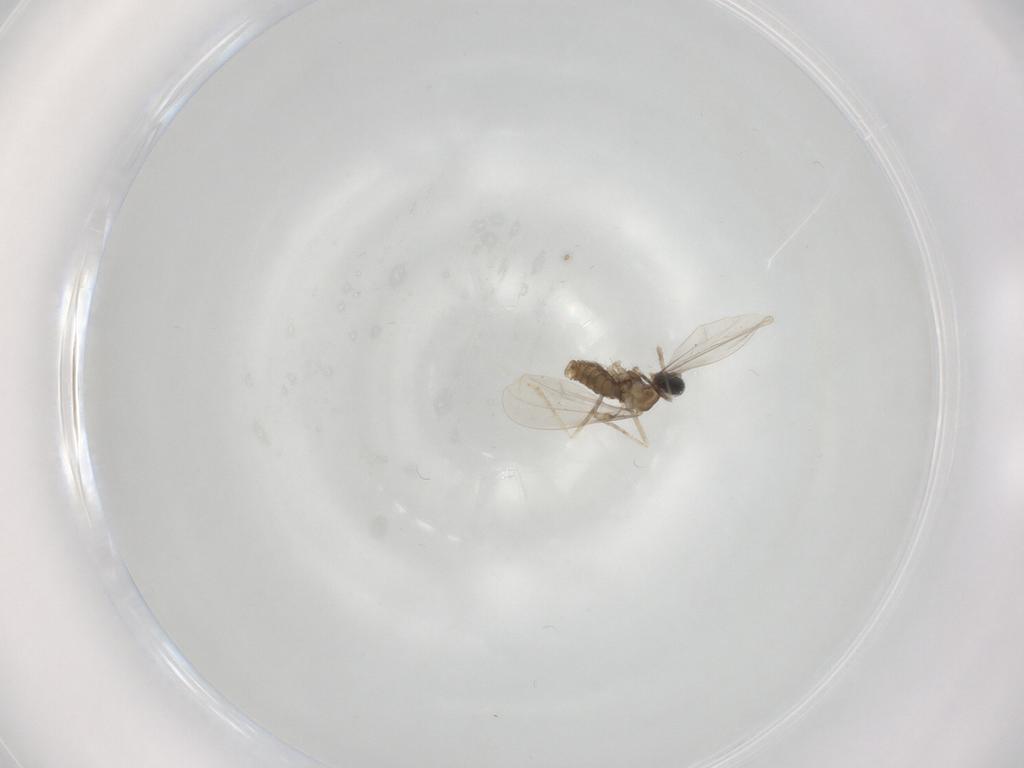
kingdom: Animalia
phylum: Arthropoda
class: Insecta
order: Diptera
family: Cecidomyiidae
